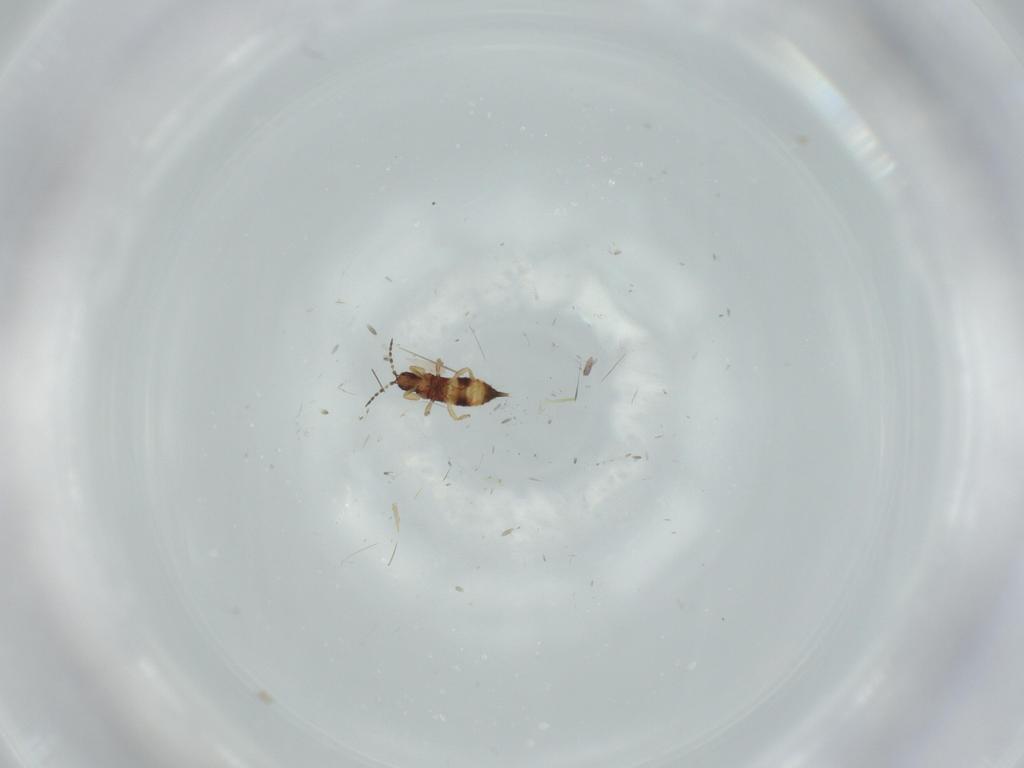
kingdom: Animalia
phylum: Arthropoda
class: Insecta
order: Thysanoptera
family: Phlaeothripidae
